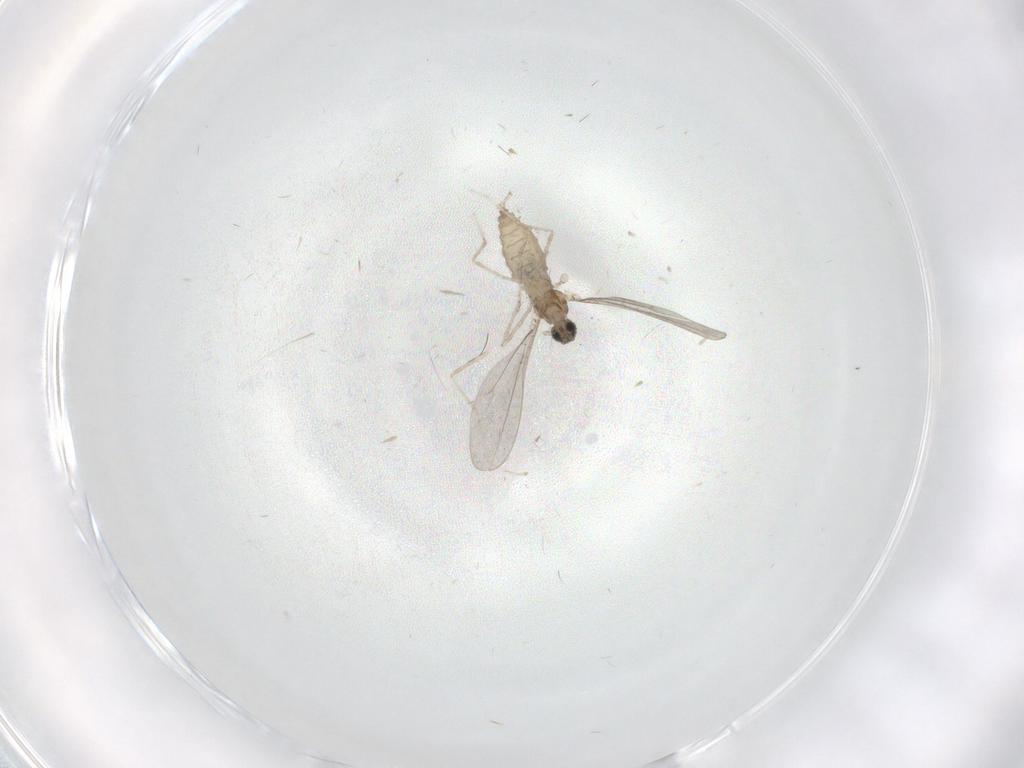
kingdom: Animalia
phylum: Arthropoda
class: Insecta
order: Diptera
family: Cecidomyiidae
